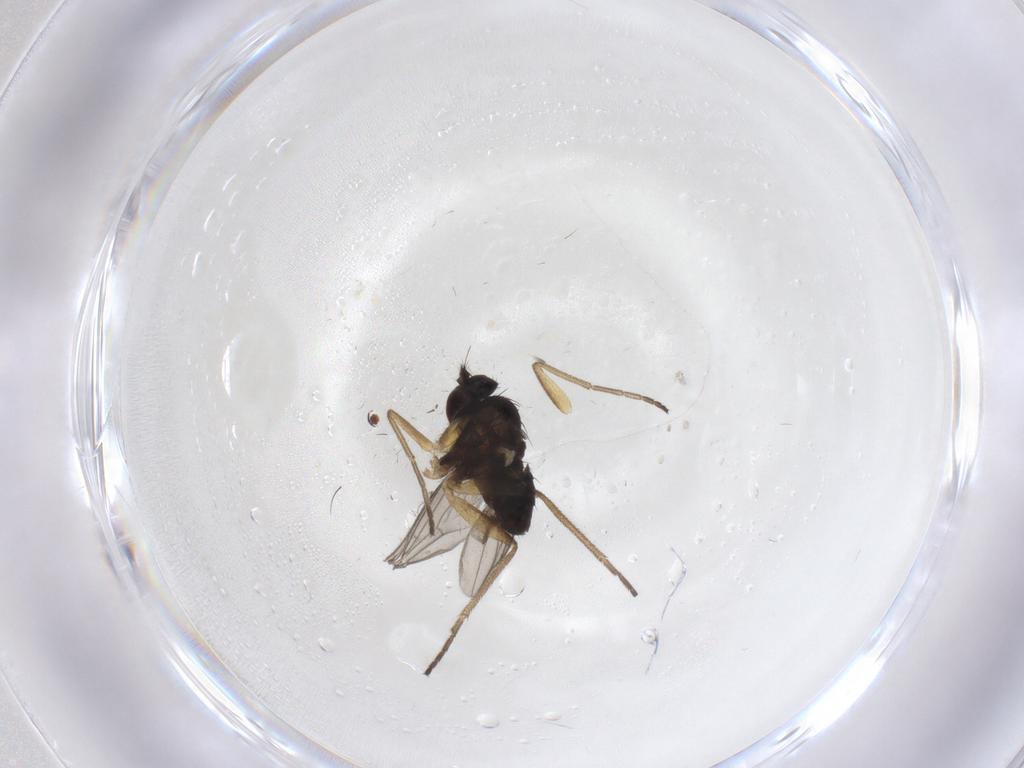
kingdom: Animalia
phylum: Arthropoda
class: Insecta
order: Diptera
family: Dolichopodidae
